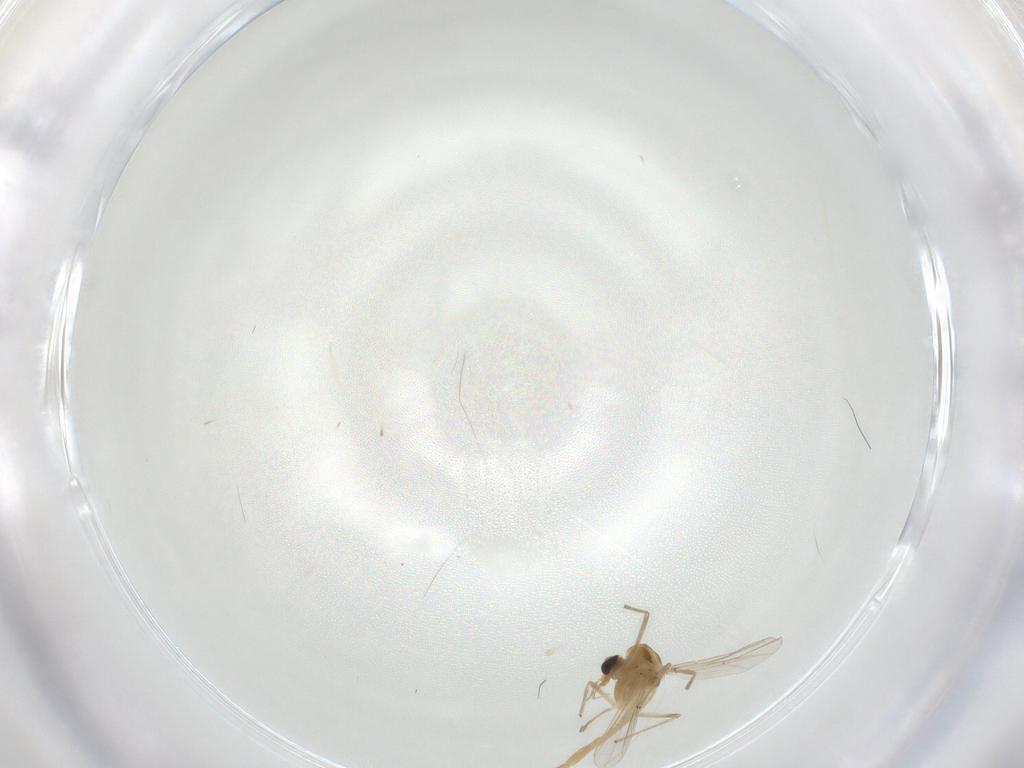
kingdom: Animalia
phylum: Arthropoda
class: Insecta
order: Diptera
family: Chironomidae
